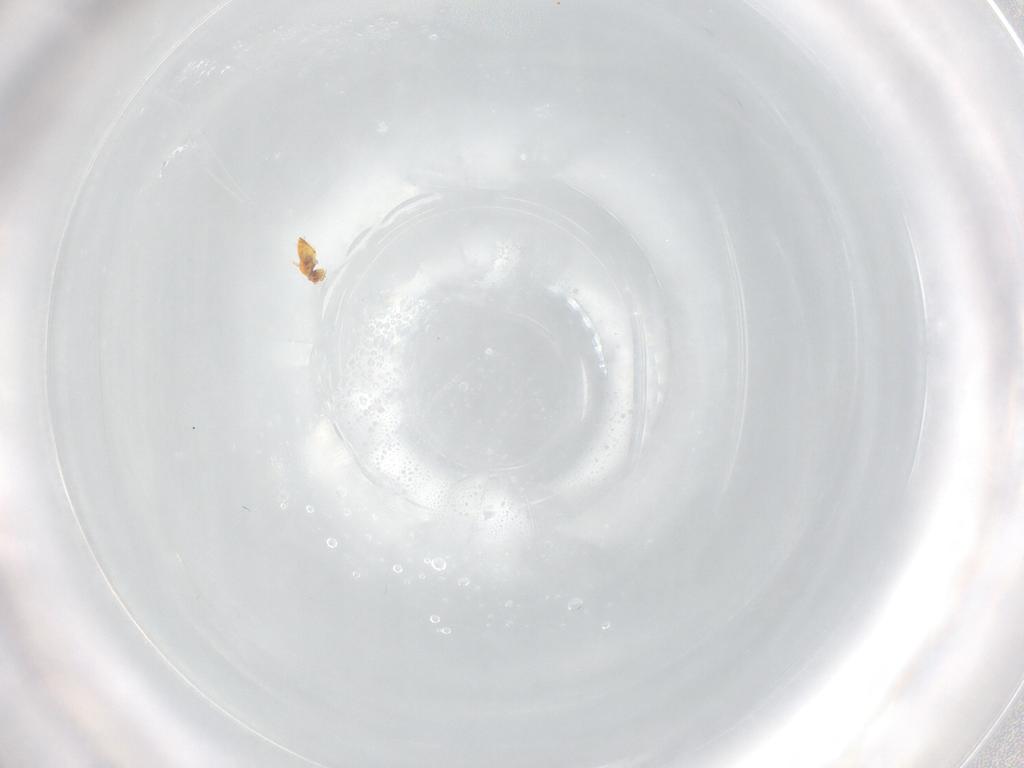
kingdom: Animalia
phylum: Arthropoda
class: Insecta
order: Hymenoptera
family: Trichogrammatidae
